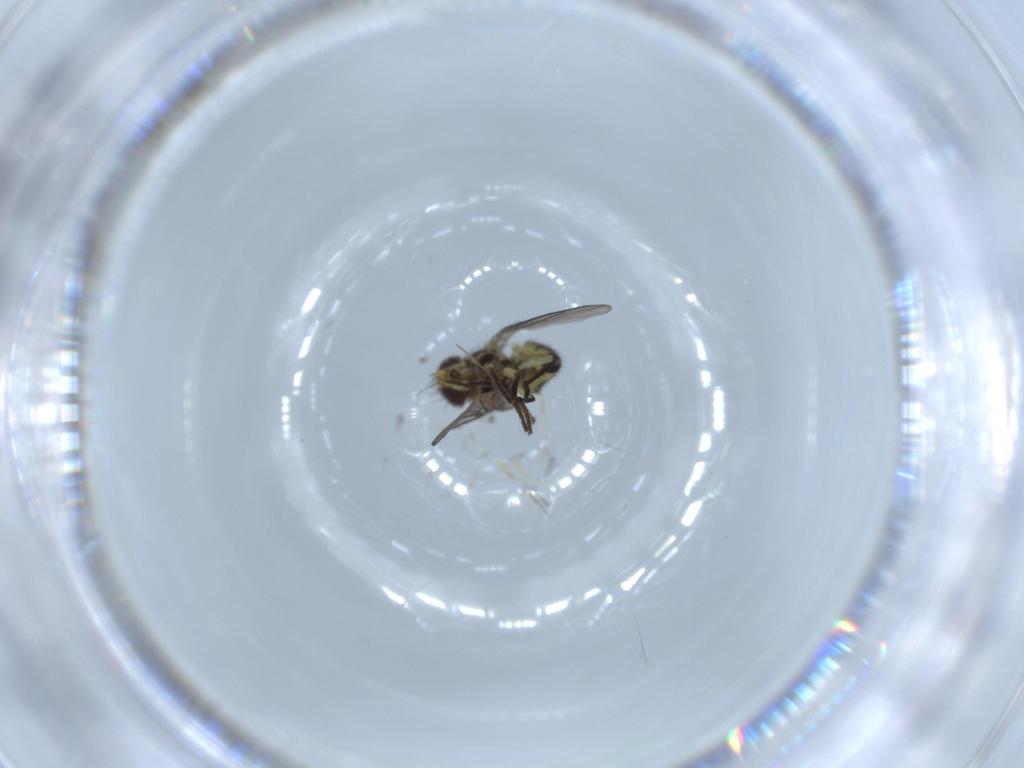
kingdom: Animalia
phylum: Arthropoda
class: Insecta
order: Diptera
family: Agromyzidae
